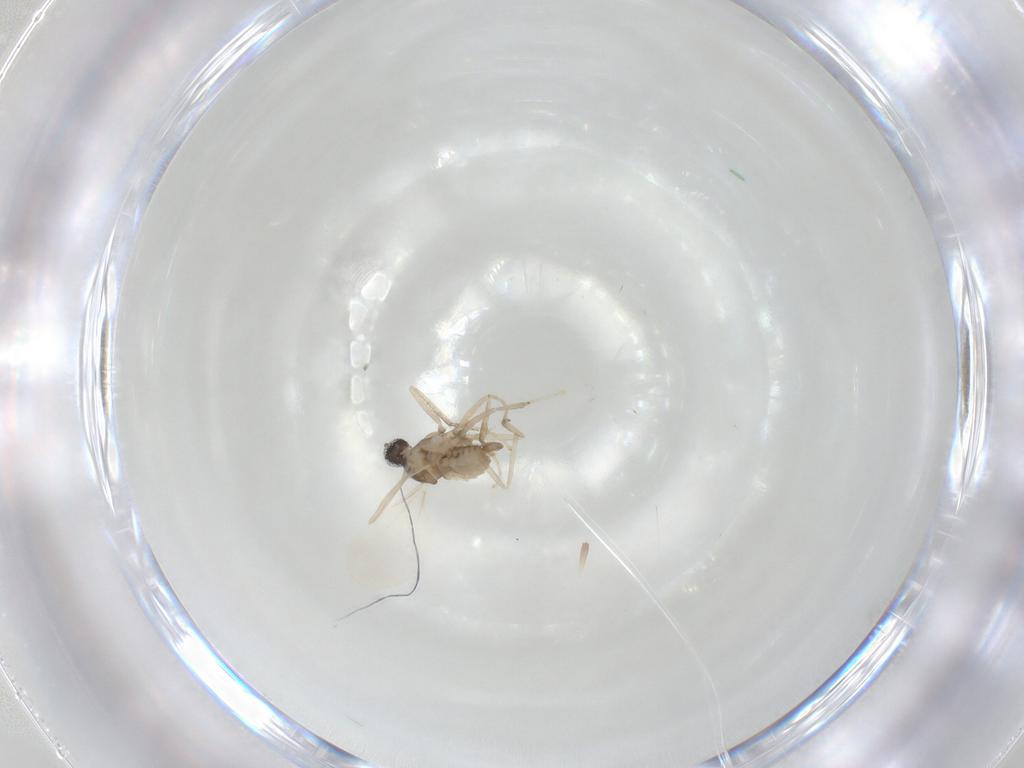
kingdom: Animalia
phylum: Arthropoda
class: Insecta
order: Diptera
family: Cecidomyiidae
